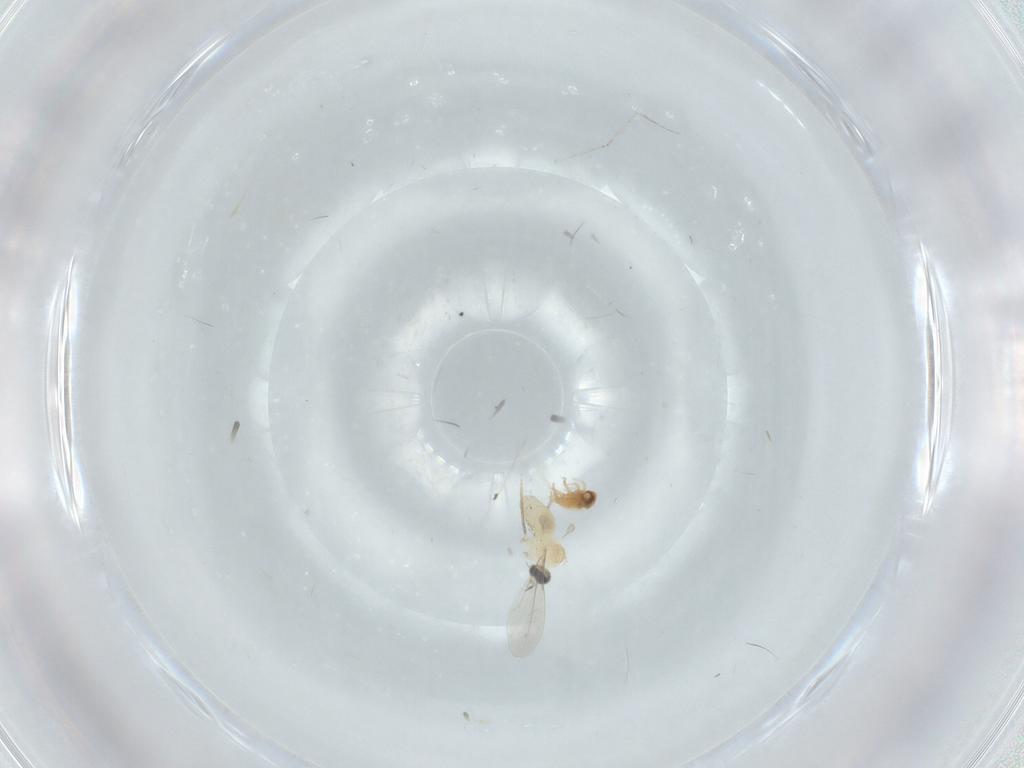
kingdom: Animalia
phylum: Arthropoda
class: Insecta
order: Diptera
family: Cecidomyiidae
